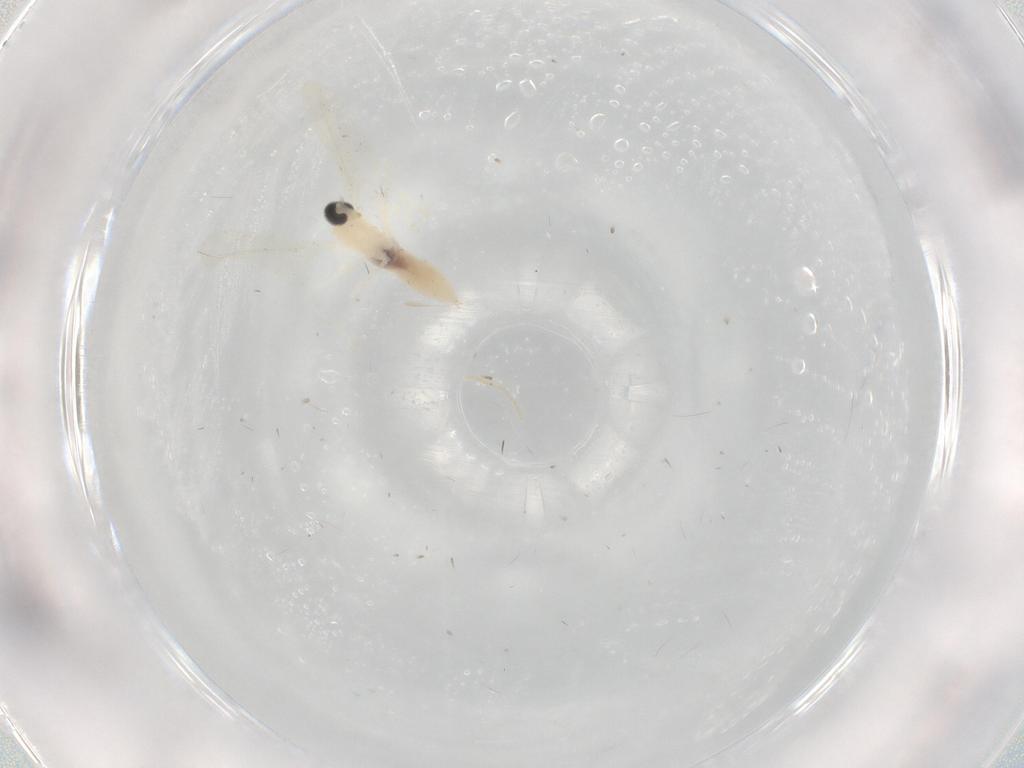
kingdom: Animalia
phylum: Arthropoda
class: Insecta
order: Diptera
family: Cecidomyiidae
